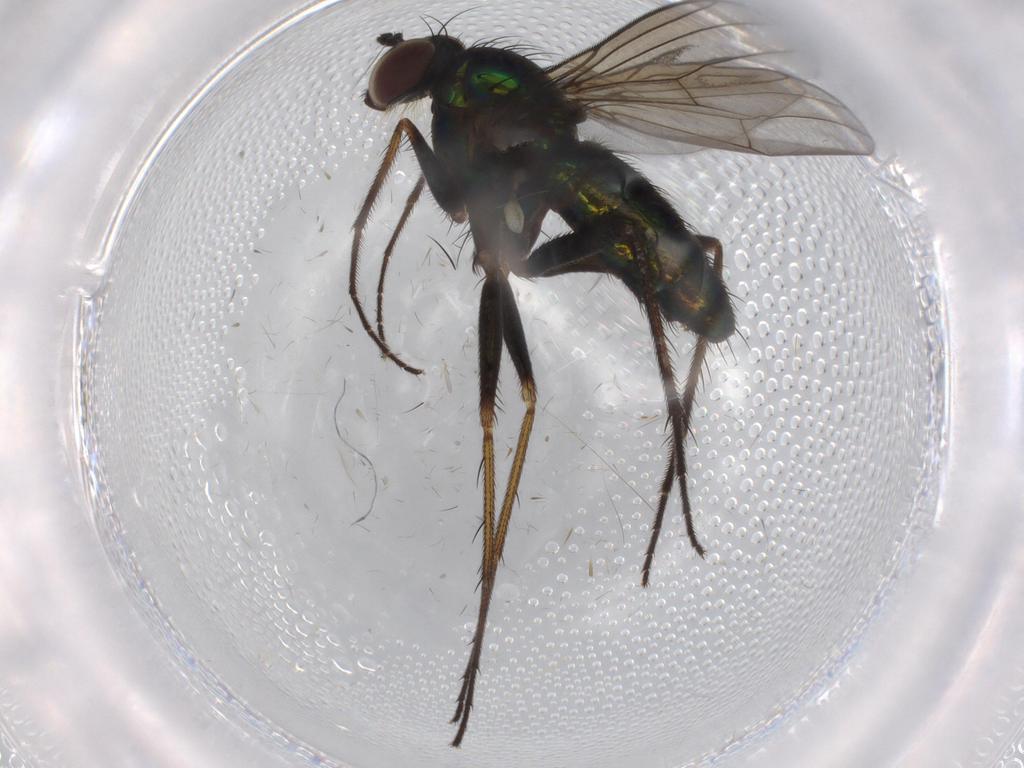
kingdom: Animalia
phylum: Arthropoda
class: Insecta
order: Diptera
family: Dolichopodidae
